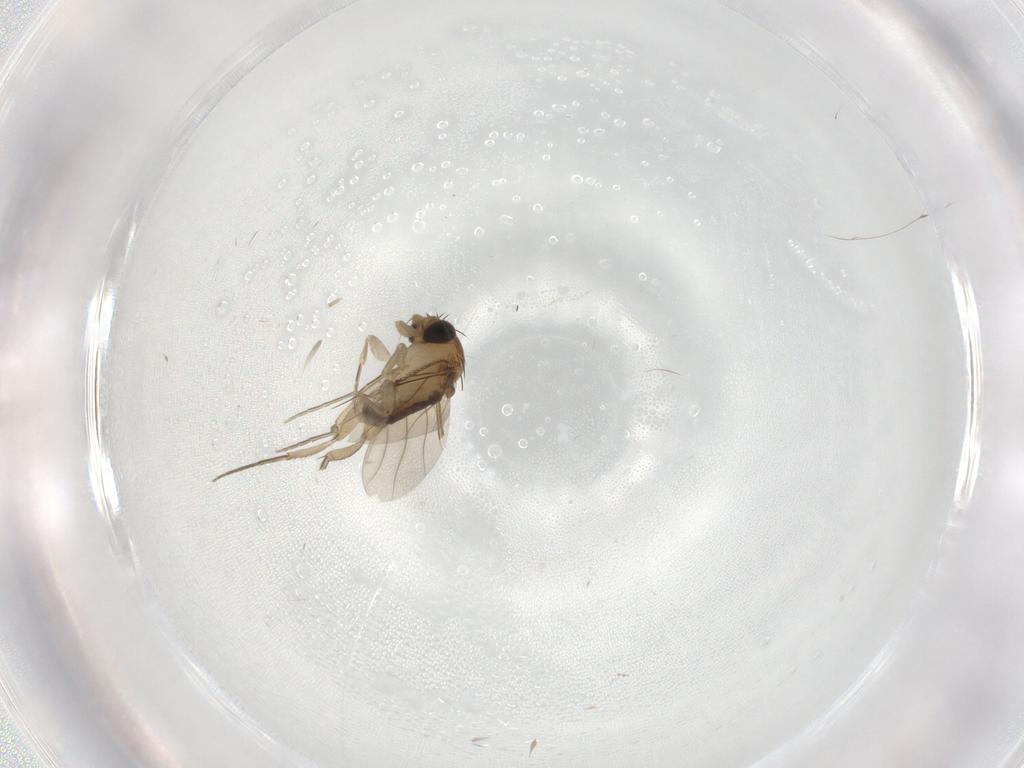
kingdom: Animalia
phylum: Arthropoda
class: Insecta
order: Diptera
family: Phoridae
